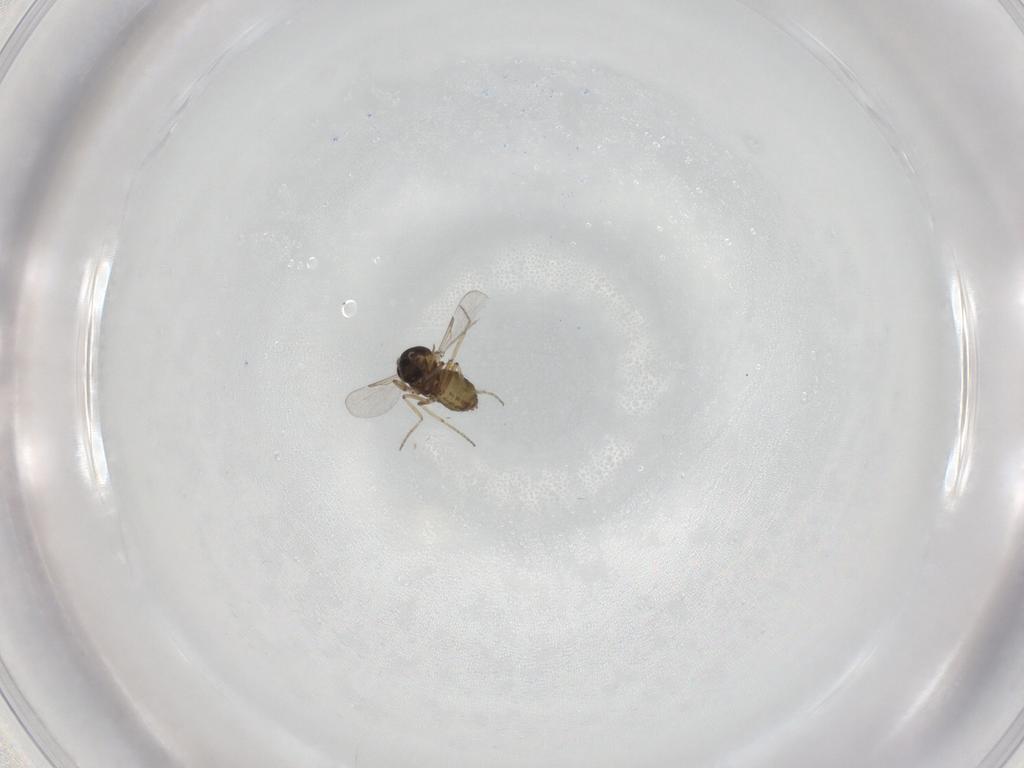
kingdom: Animalia
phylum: Arthropoda
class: Insecta
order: Diptera
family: Ceratopogonidae
